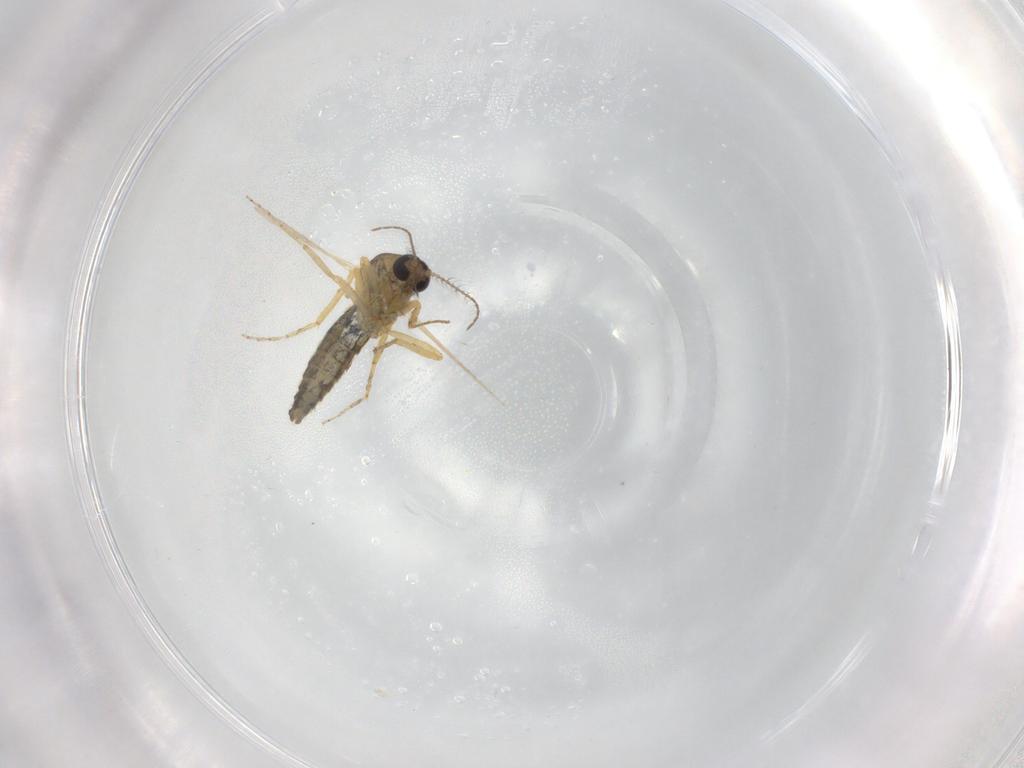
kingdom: Animalia
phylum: Arthropoda
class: Insecta
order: Diptera
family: Ceratopogonidae
